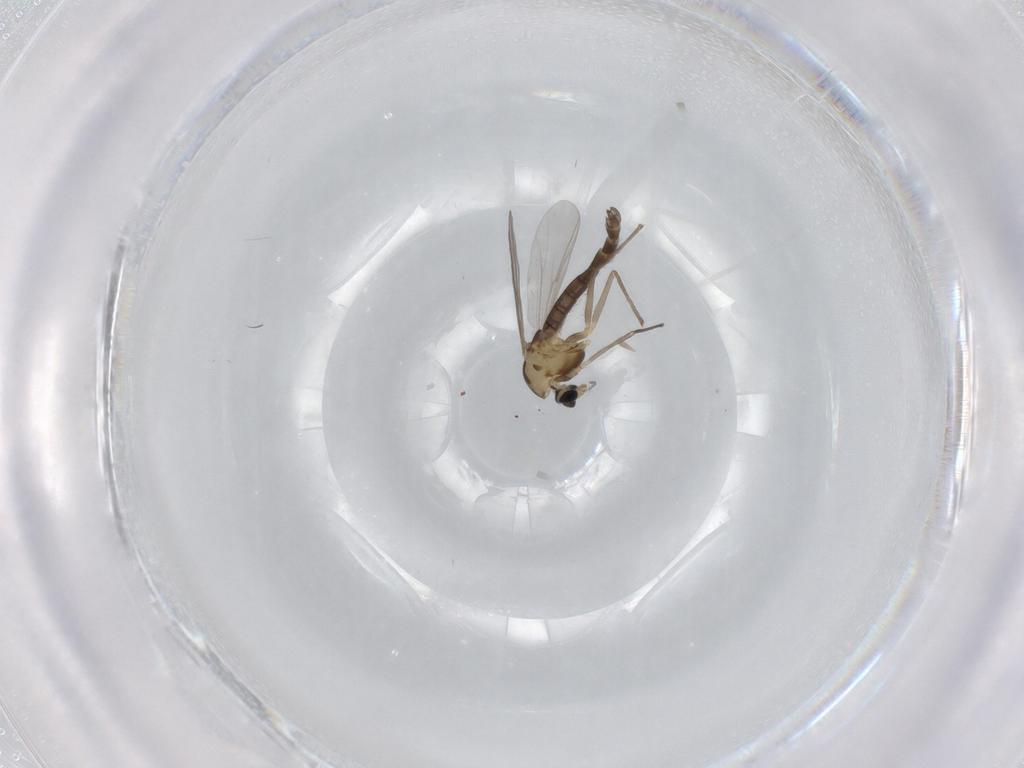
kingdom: Animalia
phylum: Arthropoda
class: Insecta
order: Diptera
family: Chironomidae
